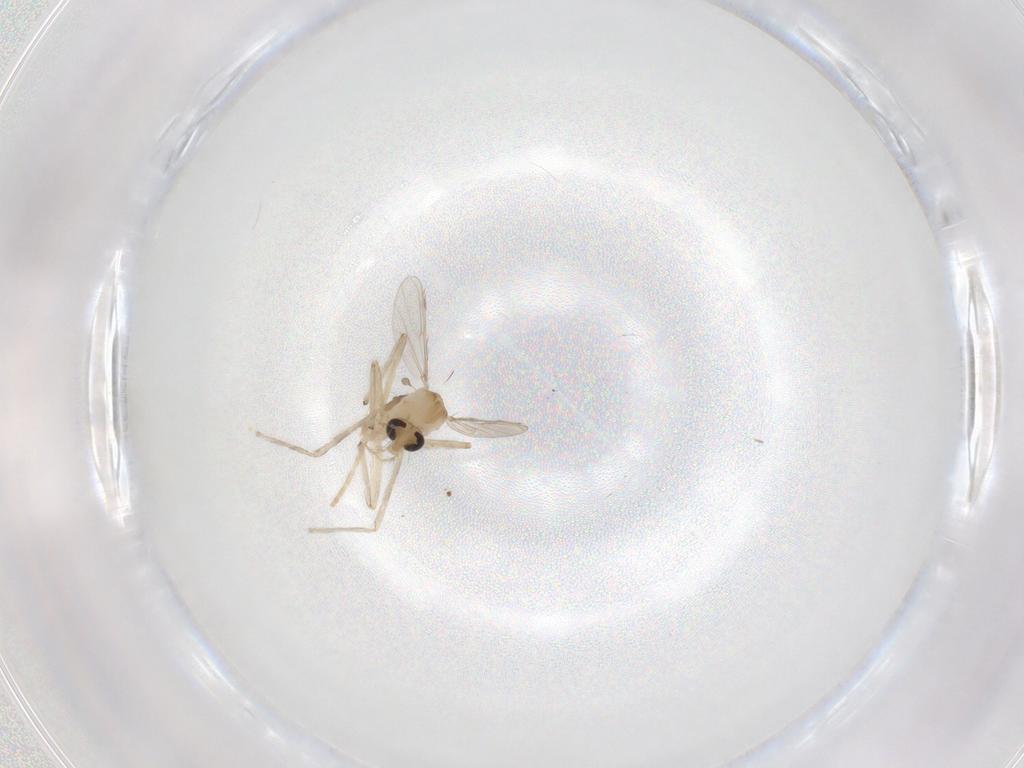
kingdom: Animalia
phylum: Arthropoda
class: Insecta
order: Diptera
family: Chironomidae
